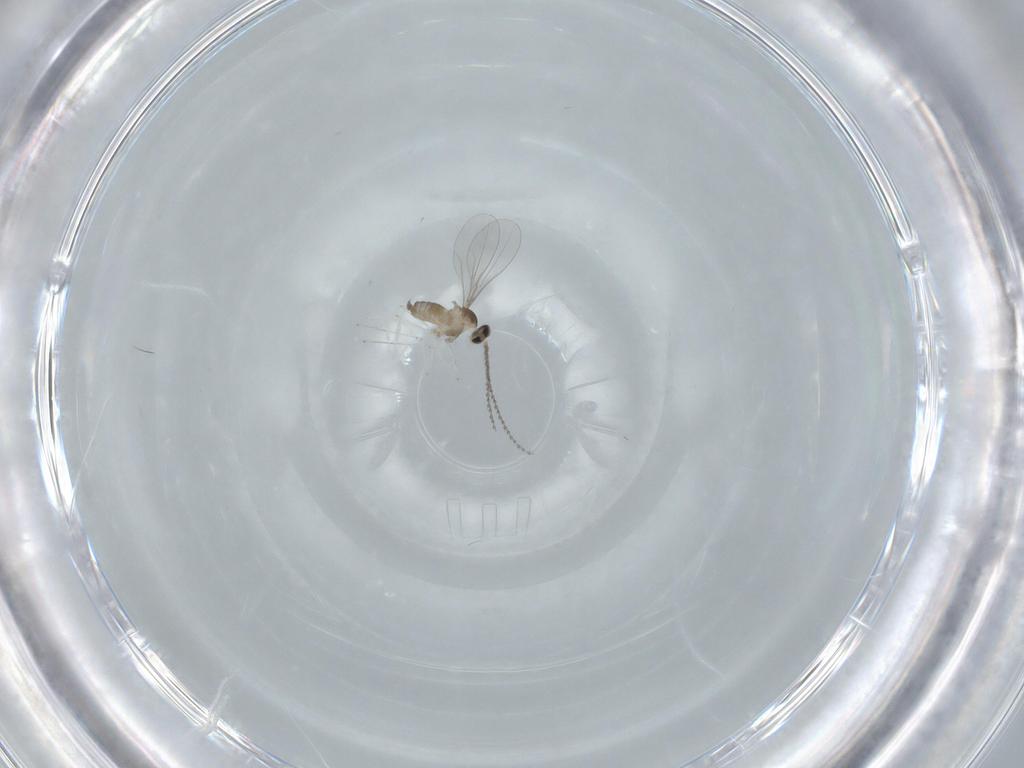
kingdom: Animalia
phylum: Arthropoda
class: Insecta
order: Diptera
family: Cecidomyiidae
